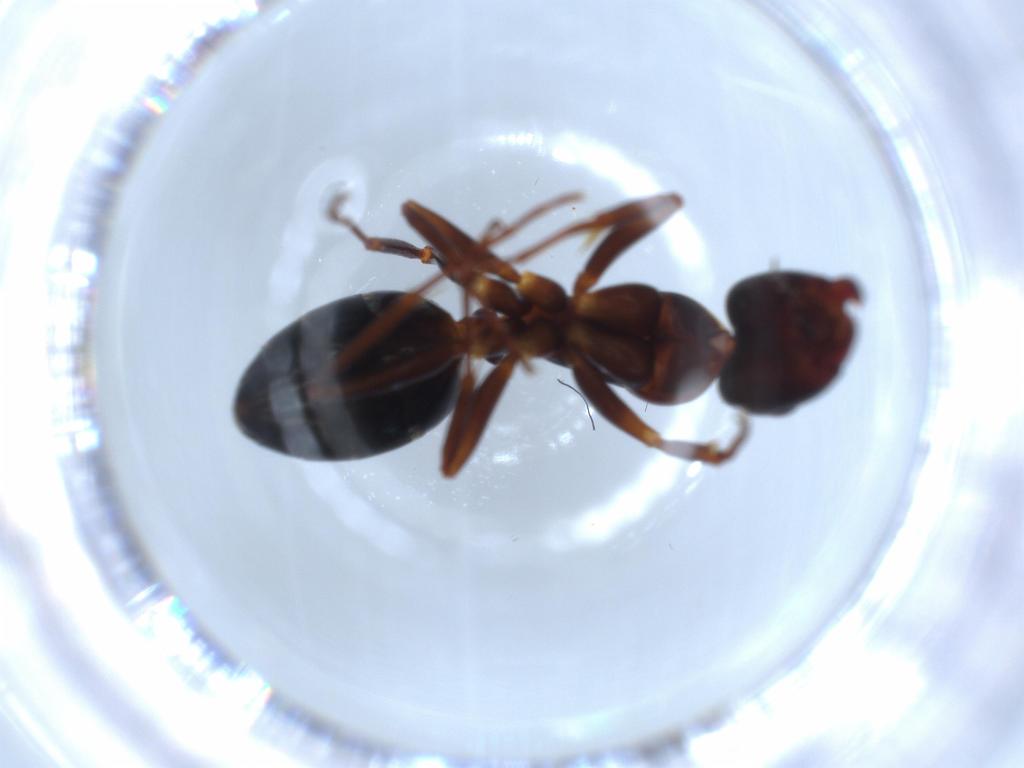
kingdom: Animalia
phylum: Arthropoda
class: Insecta
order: Hymenoptera
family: Formicidae
